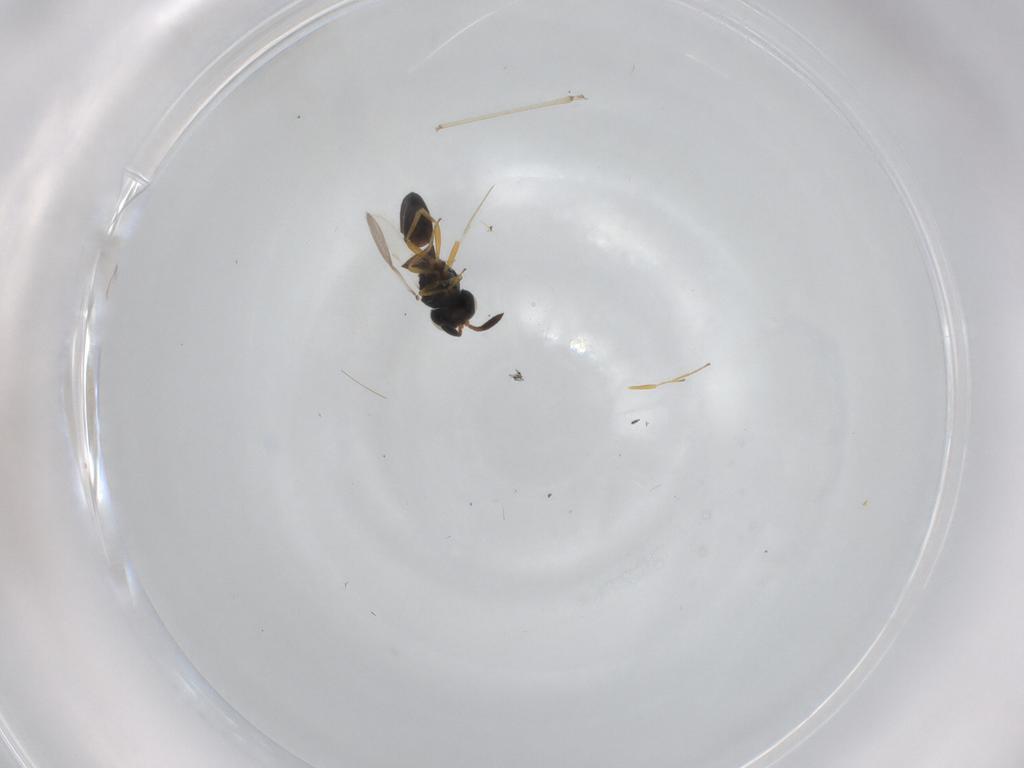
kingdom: Animalia
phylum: Arthropoda
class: Insecta
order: Hymenoptera
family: Scelionidae
